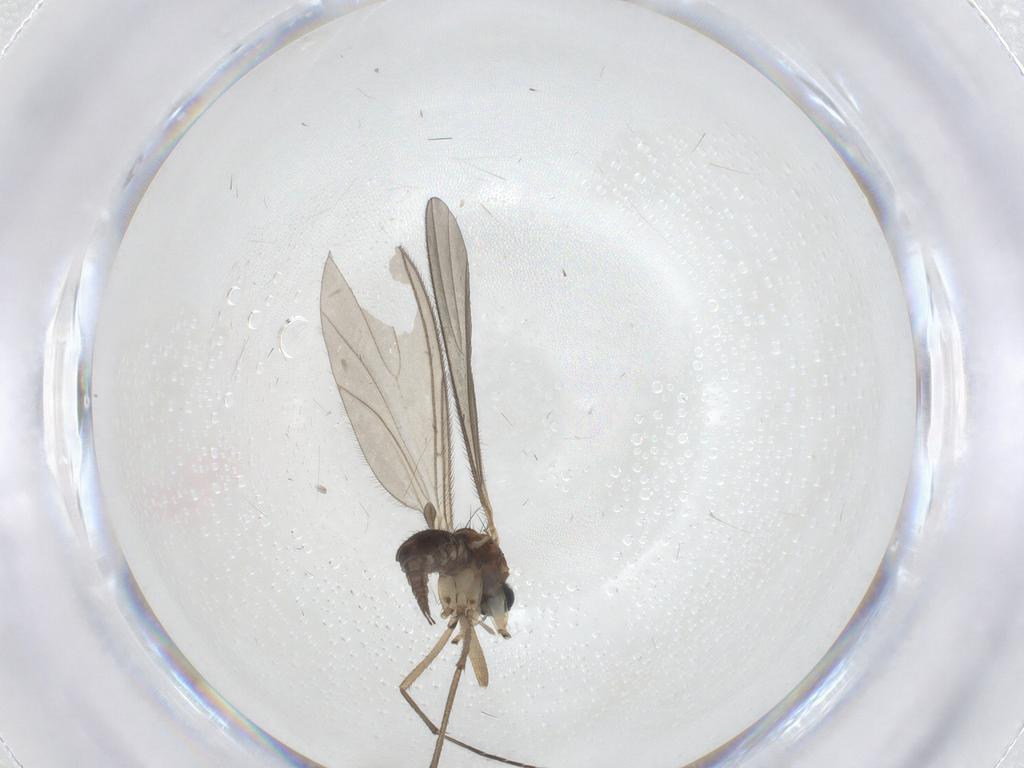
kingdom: Animalia
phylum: Arthropoda
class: Insecta
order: Diptera
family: Sciaridae
